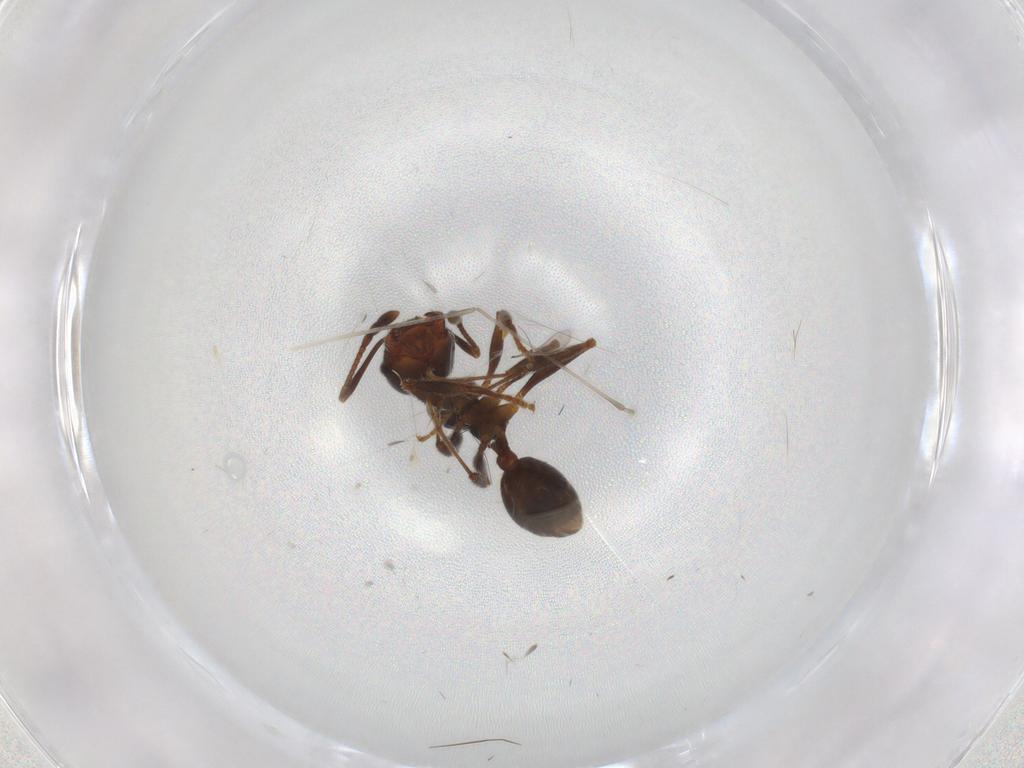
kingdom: Animalia
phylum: Arthropoda
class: Insecta
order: Hymenoptera
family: Formicidae
